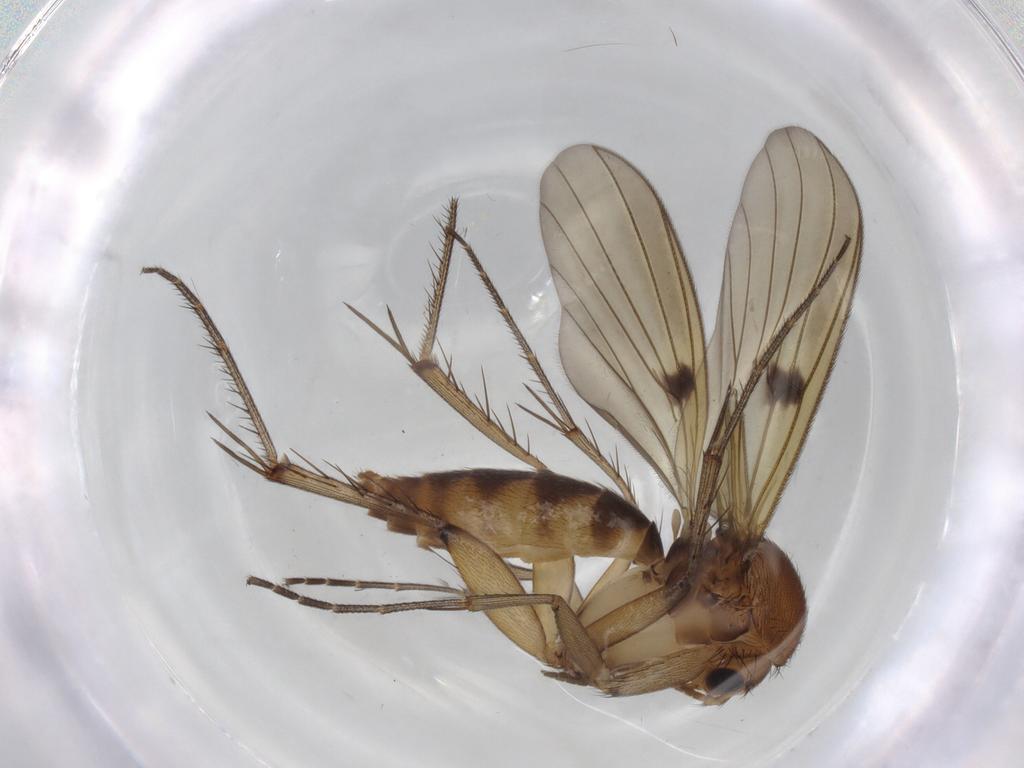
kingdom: Animalia
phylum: Arthropoda
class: Insecta
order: Diptera
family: Mycetophilidae
